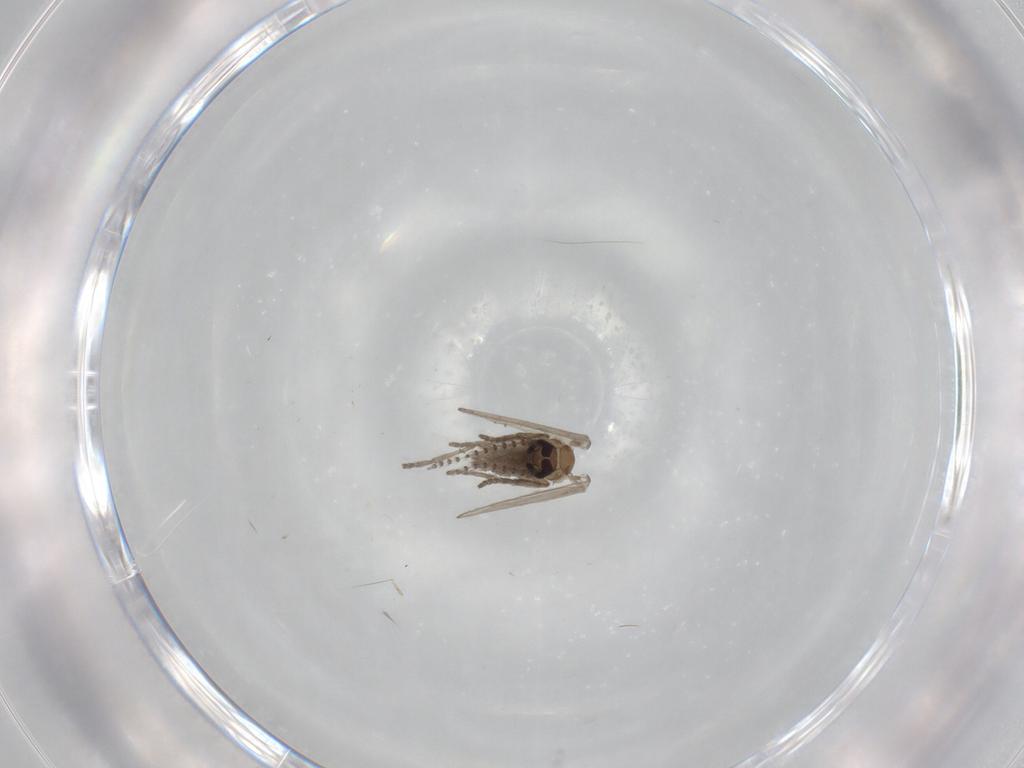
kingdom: Animalia
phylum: Arthropoda
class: Insecta
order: Diptera
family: Psychodidae
